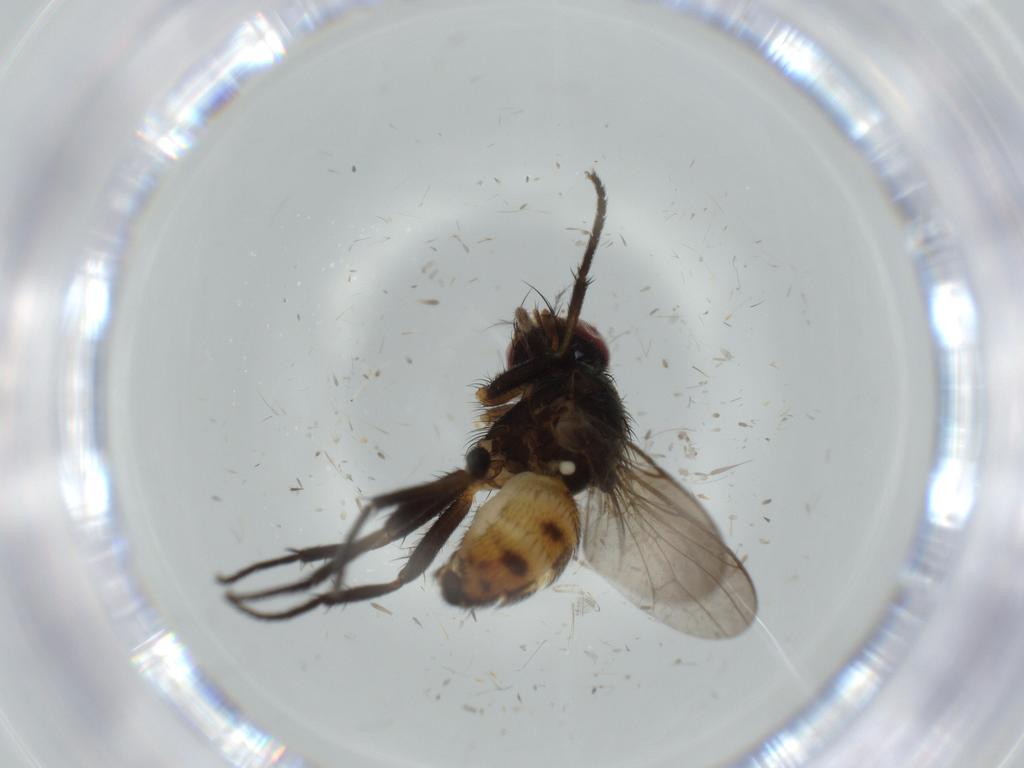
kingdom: Animalia
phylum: Arthropoda
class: Insecta
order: Diptera
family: Anthomyiidae
